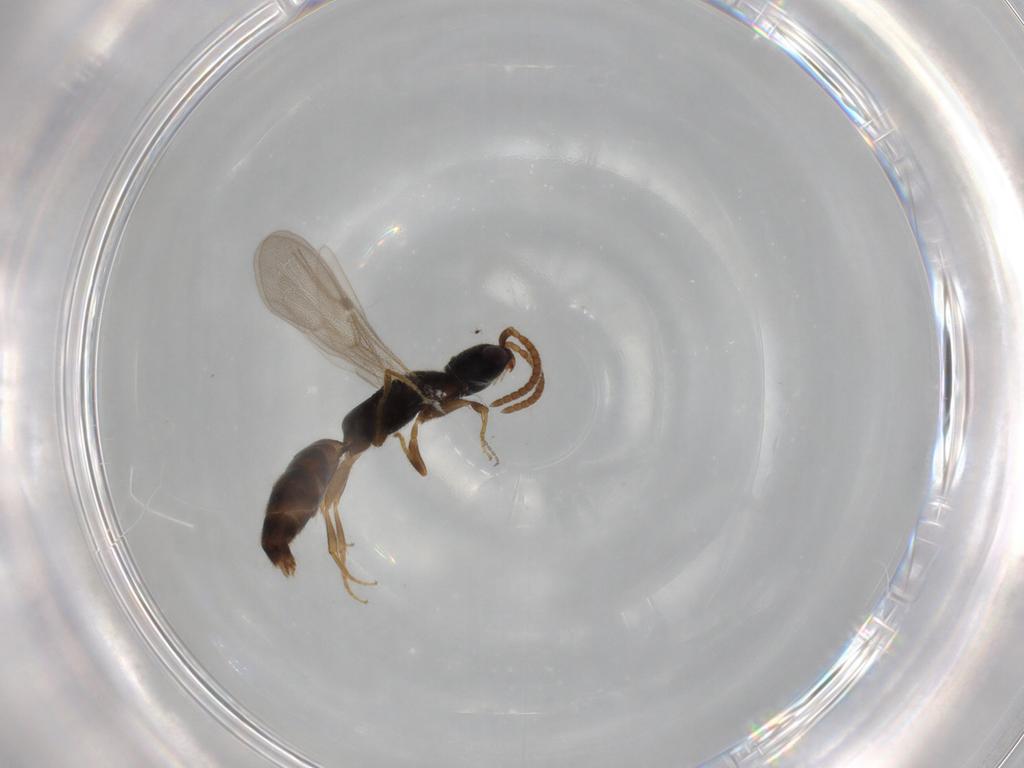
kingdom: Animalia
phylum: Arthropoda
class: Insecta
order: Hymenoptera
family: Bethylidae
